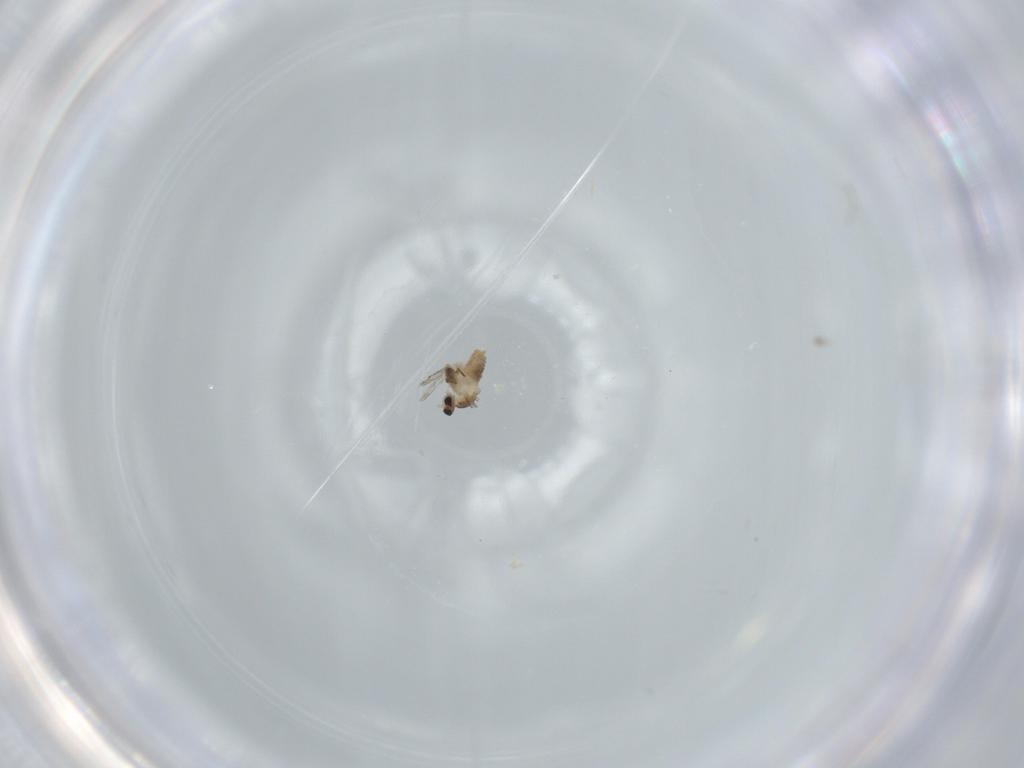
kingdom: Animalia
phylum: Arthropoda
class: Insecta
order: Diptera
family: Cecidomyiidae
